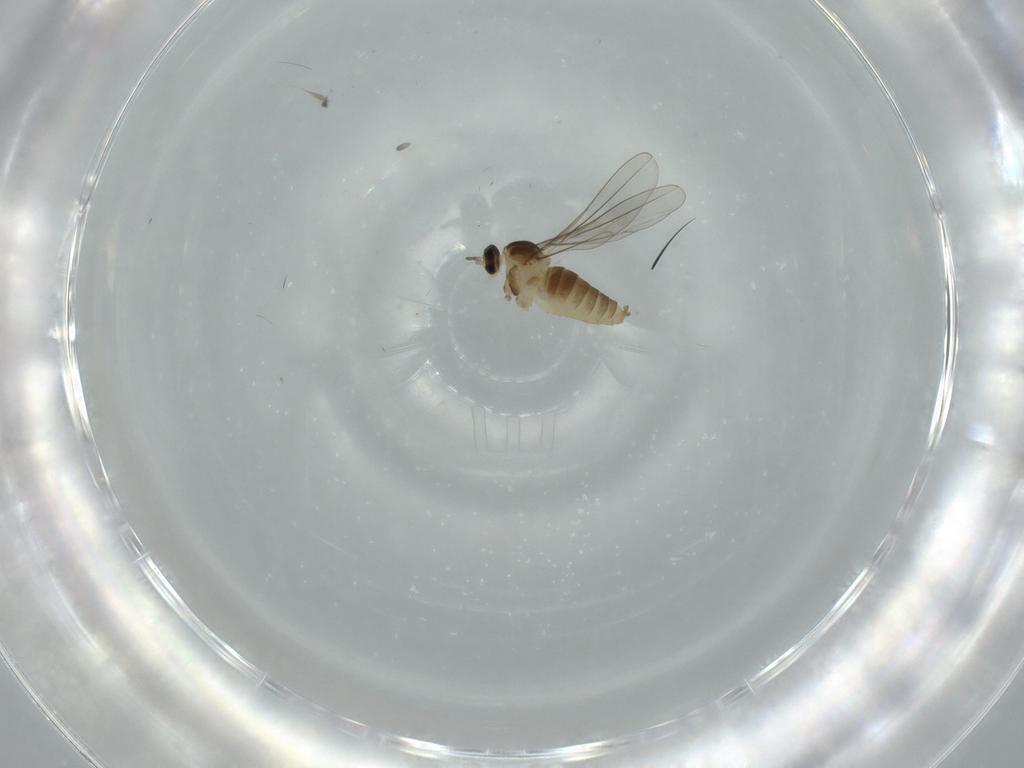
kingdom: Animalia
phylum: Arthropoda
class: Insecta
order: Diptera
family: Cecidomyiidae
